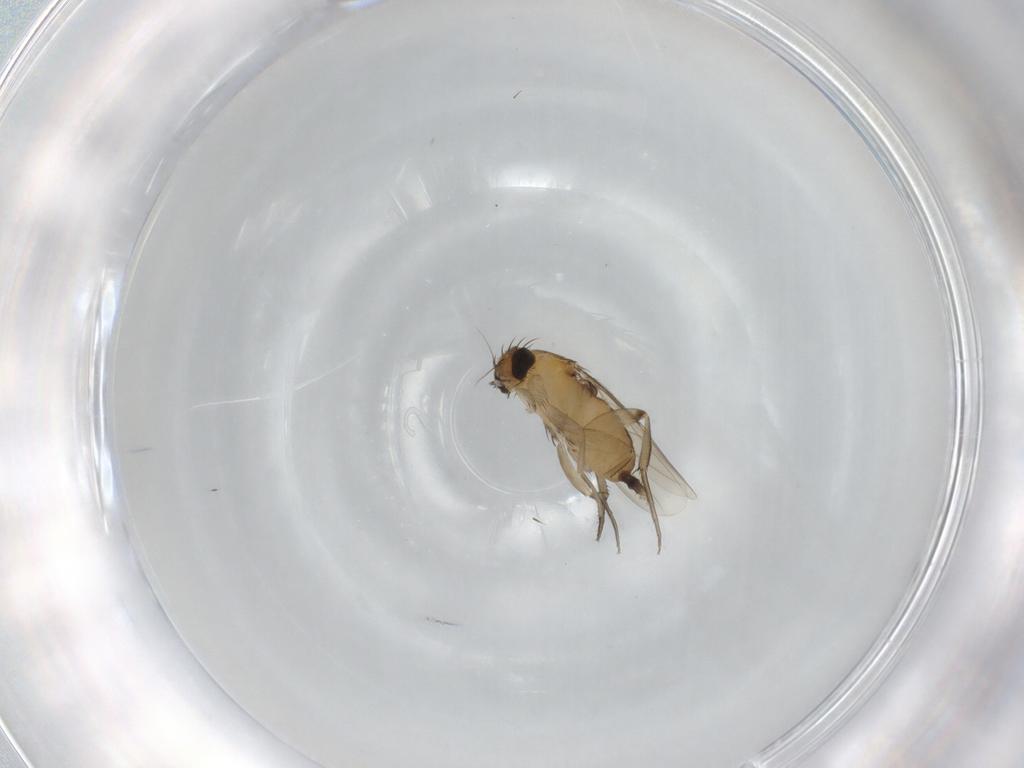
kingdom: Animalia
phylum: Arthropoda
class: Insecta
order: Diptera
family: Phoridae
